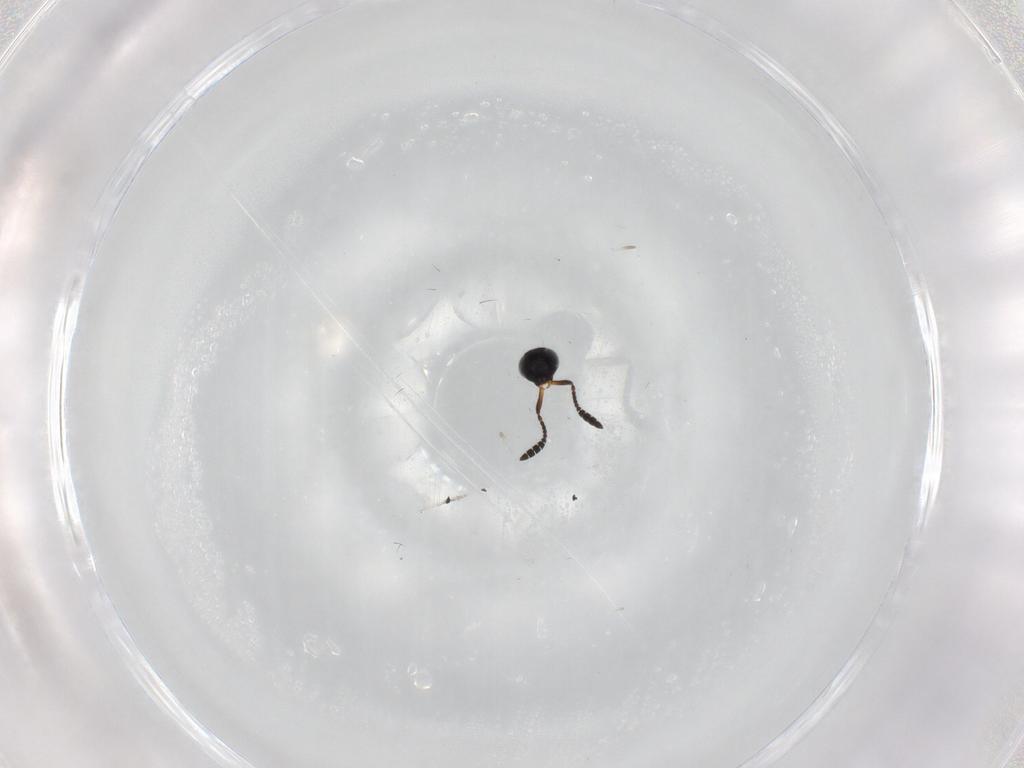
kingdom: Animalia
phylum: Arthropoda
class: Insecta
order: Hymenoptera
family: Scelionidae
